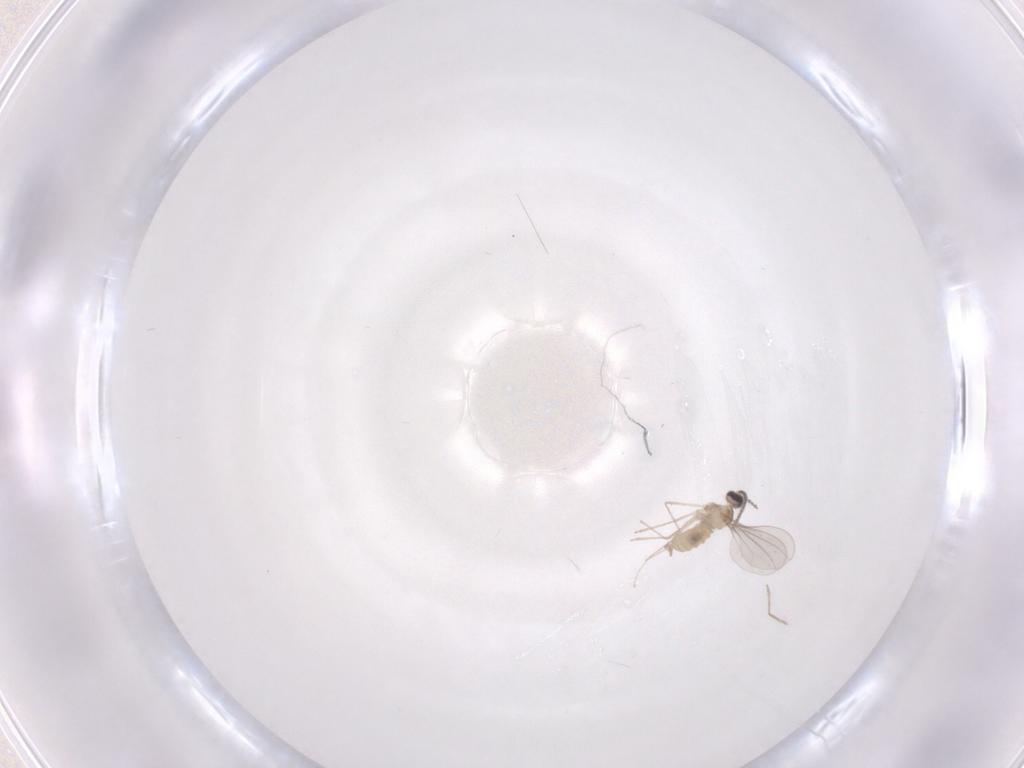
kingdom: Animalia
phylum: Arthropoda
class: Insecta
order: Diptera
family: Cecidomyiidae
